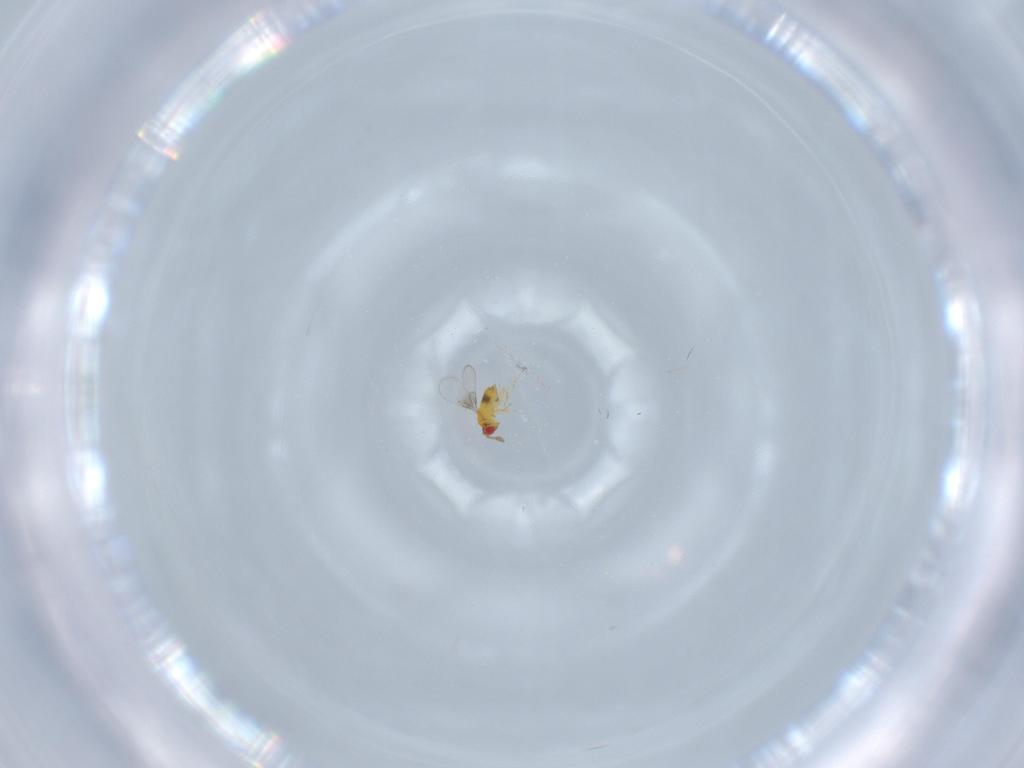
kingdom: Animalia
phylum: Arthropoda
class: Insecta
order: Hymenoptera
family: Trichogrammatidae
